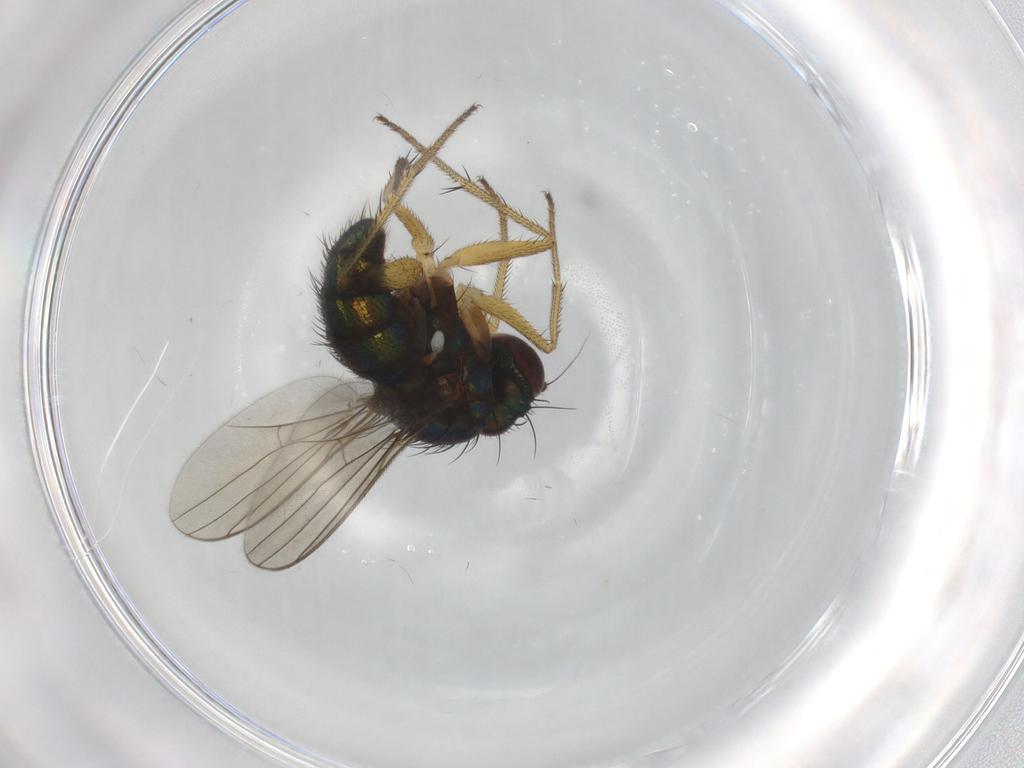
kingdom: Animalia
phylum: Arthropoda
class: Insecta
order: Diptera
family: Dolichopodidae
